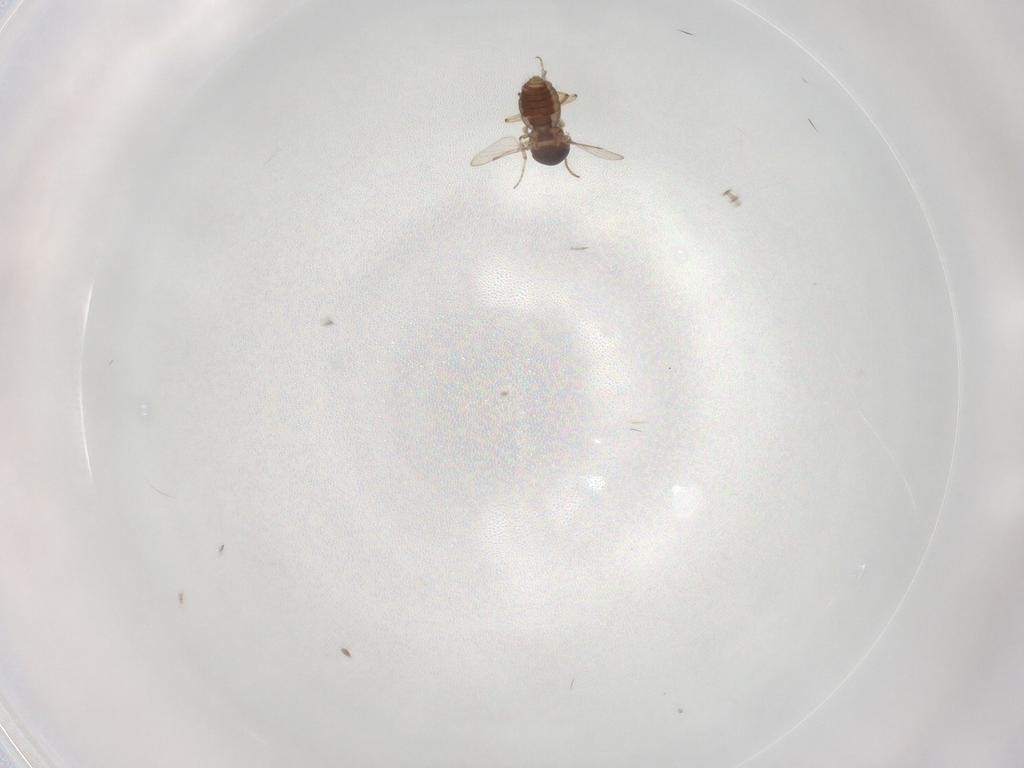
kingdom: Animalia
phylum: Arthropoda
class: Insecta
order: Diptera
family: Ceratopogonidae
